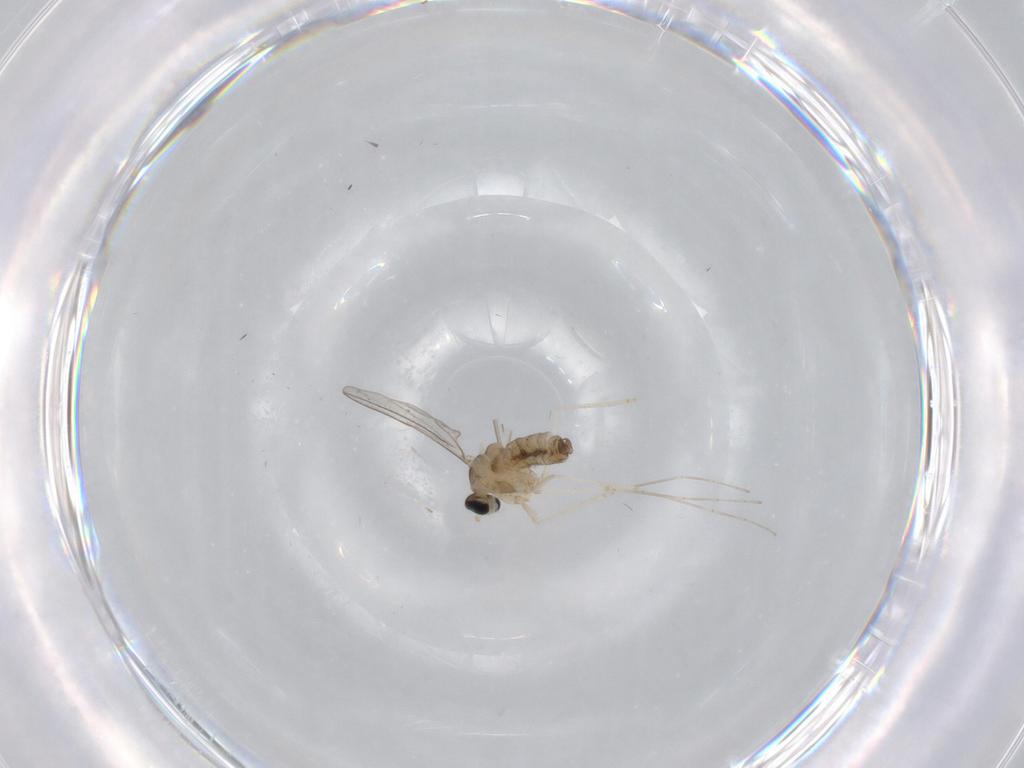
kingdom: Animalia
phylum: Arthropoda
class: Insecta
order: Diptera
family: Cecidomyiidae
